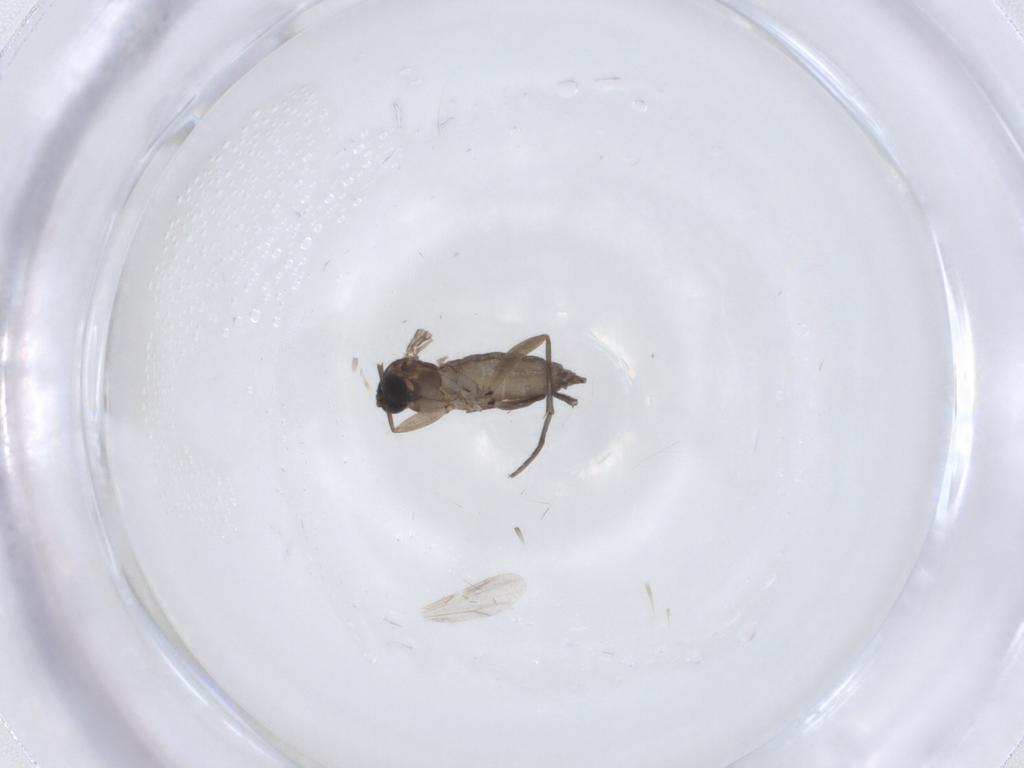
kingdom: Animalia
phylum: Arthropoda
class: Insecta
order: Diptera
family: Sciaridae
